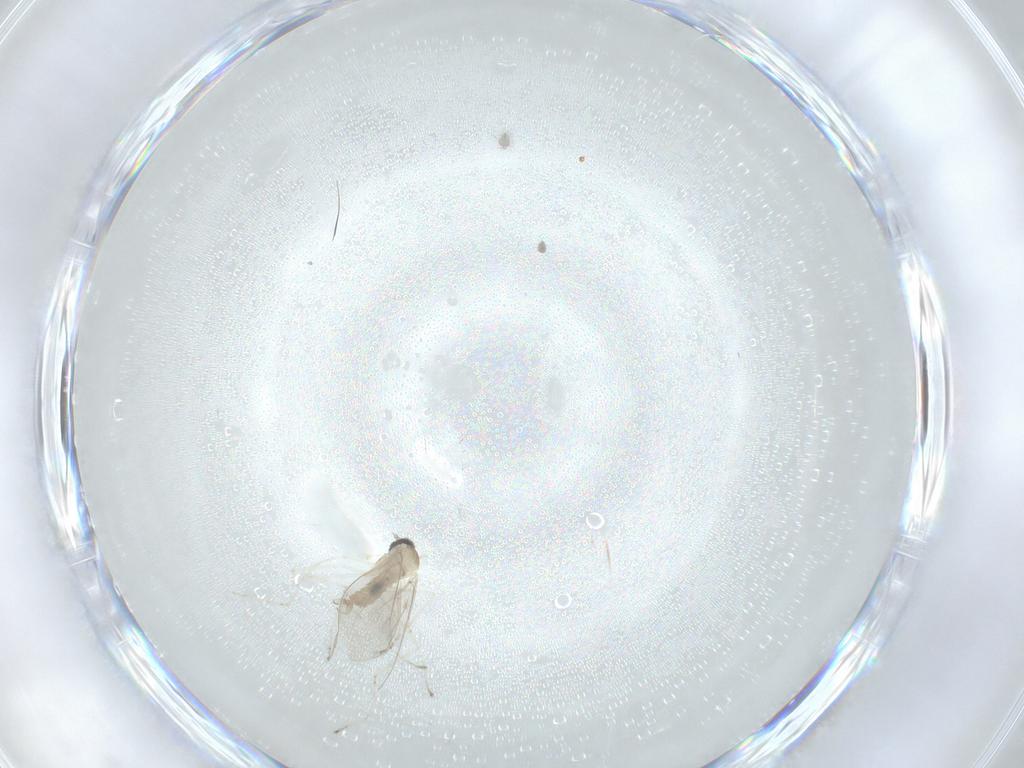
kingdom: Animalia
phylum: Arthropoda
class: Insecta
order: Diptera
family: Cecidomyiidae
